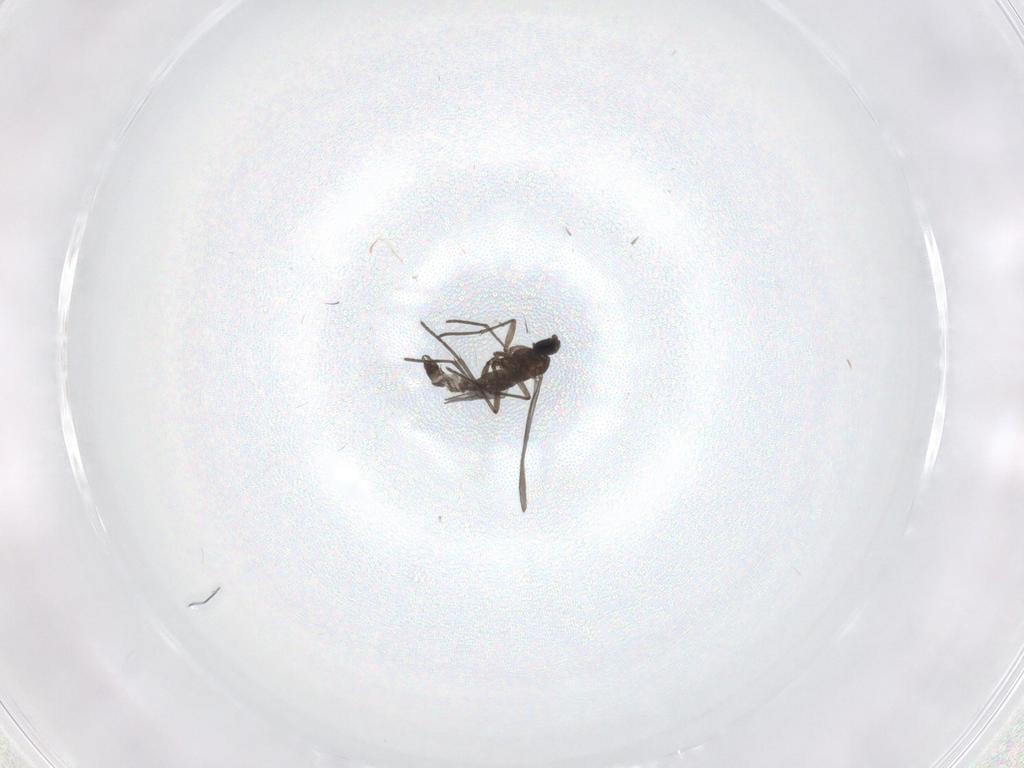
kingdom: Animalia
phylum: Arthropoda
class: Insecta
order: Diptera
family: Cecidomyiidae
